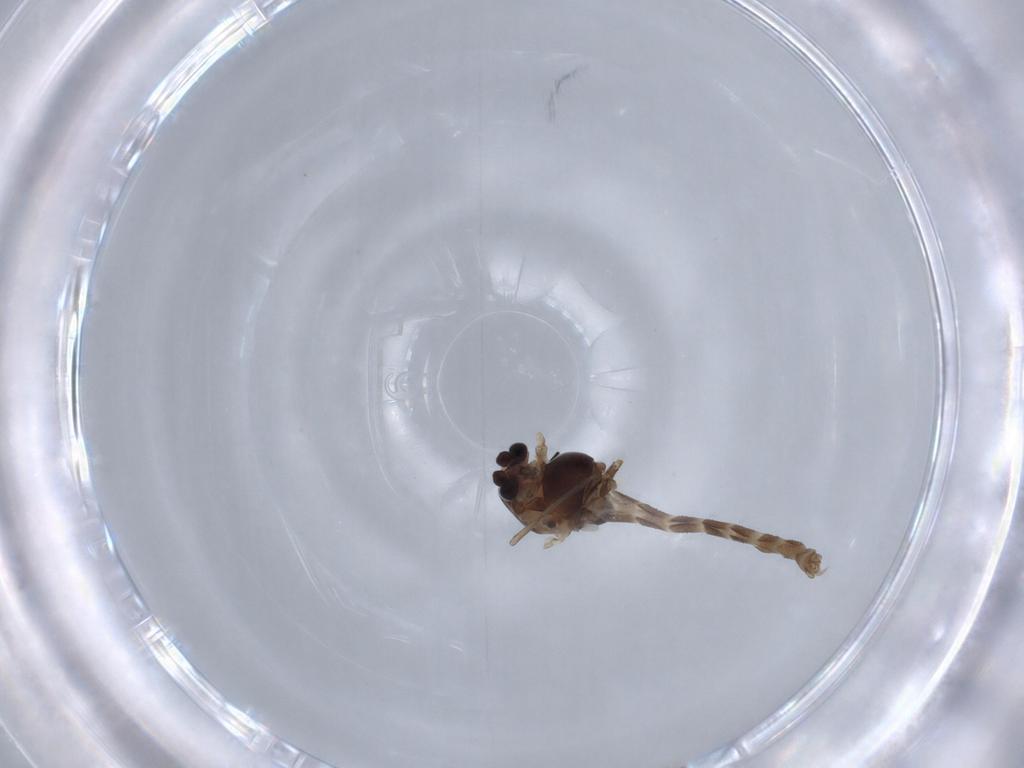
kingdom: Animalia
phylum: Arthropoda
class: Insecta
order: Diptera
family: Chironomidae
